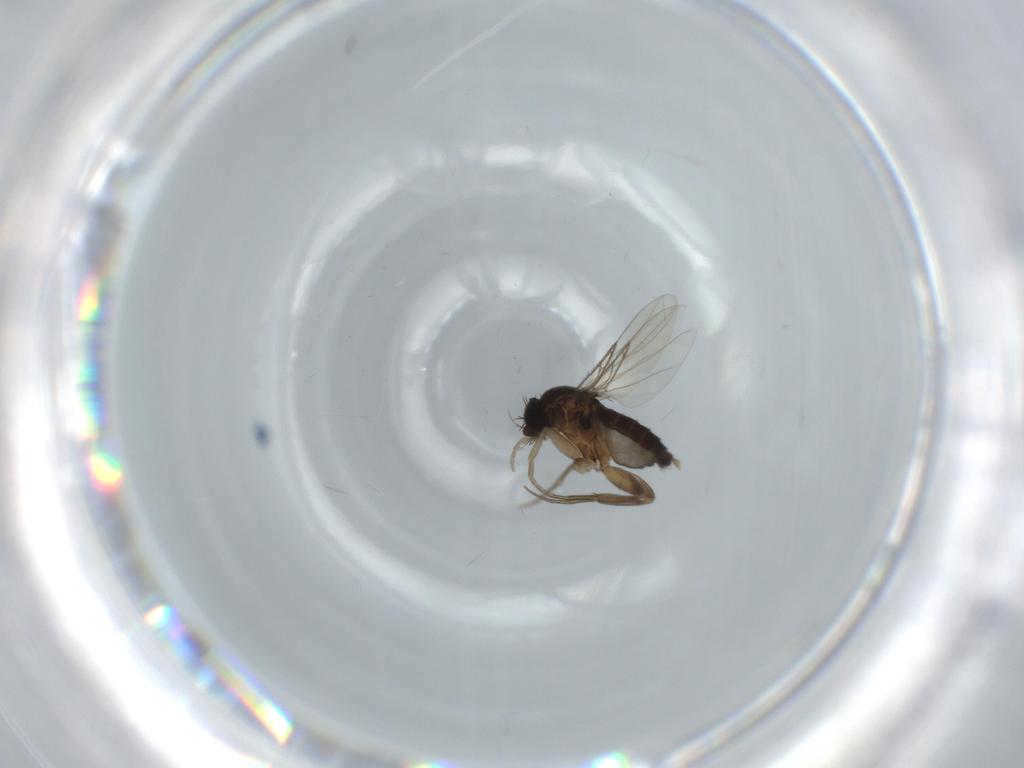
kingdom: Animalia
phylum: Arthropoda
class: Insecta
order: Diptera
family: Phoridae
